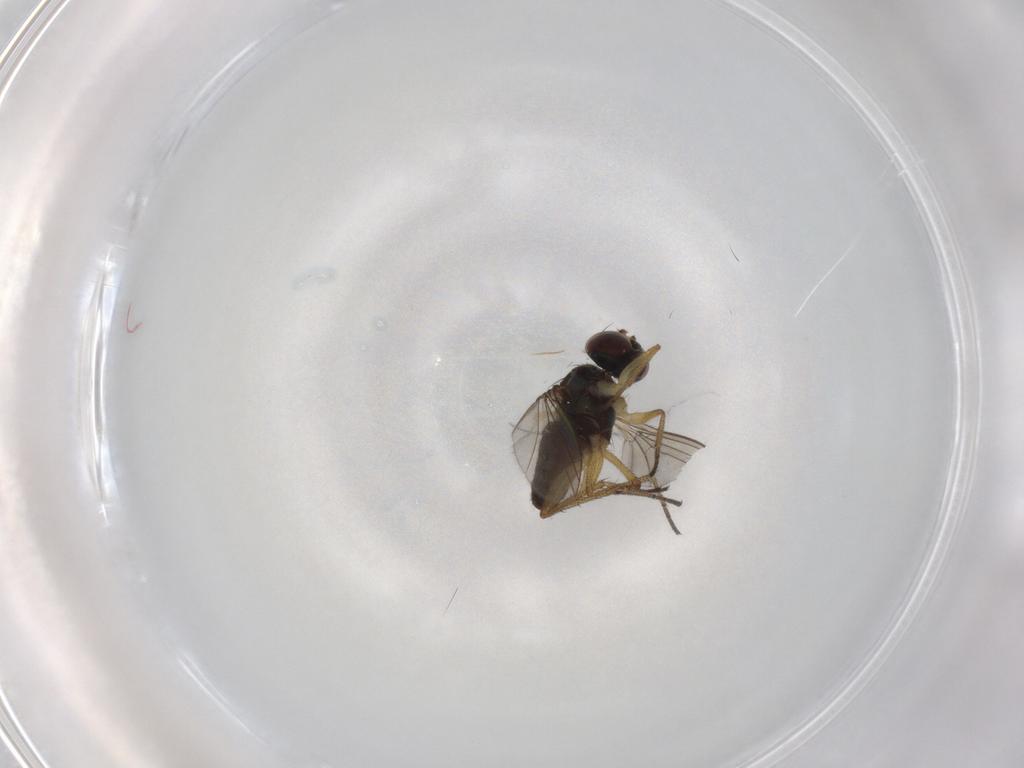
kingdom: Animalia
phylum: Arthropoda
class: Insecta
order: Diptera
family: Dolichopodidae
